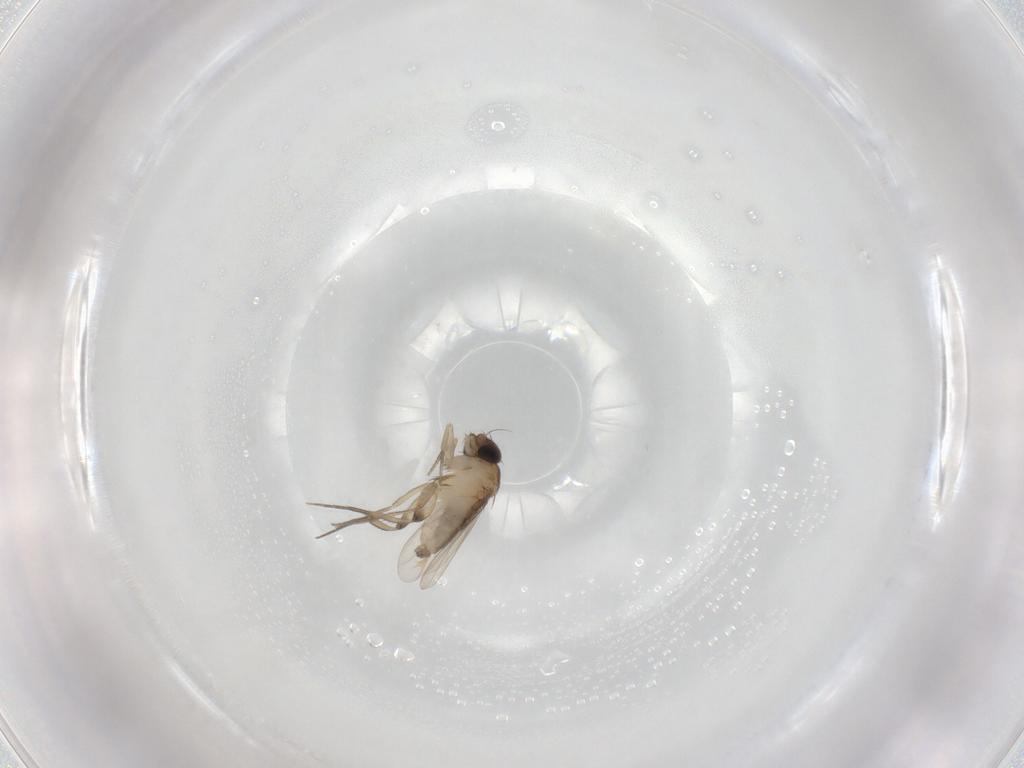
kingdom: Animalia
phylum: Arthropoda
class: Insecta
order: Diptera
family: Phoridae
